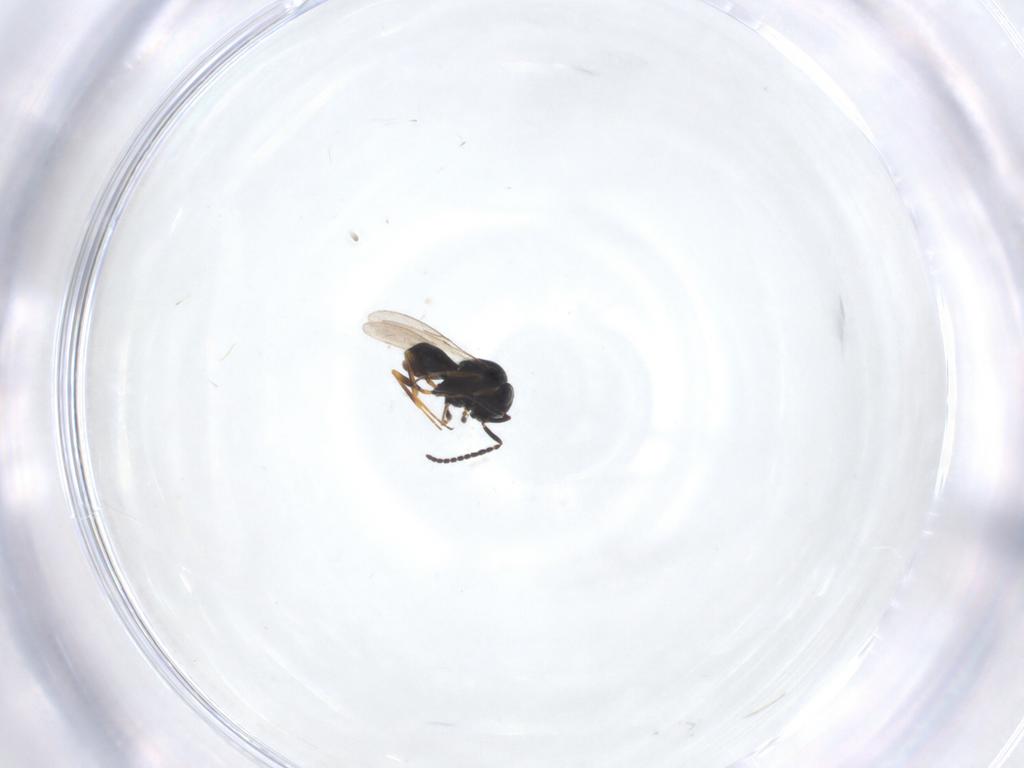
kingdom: Animalia
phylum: Arthropoda
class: Insecta
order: Hymenoptera
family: Scelionidae
